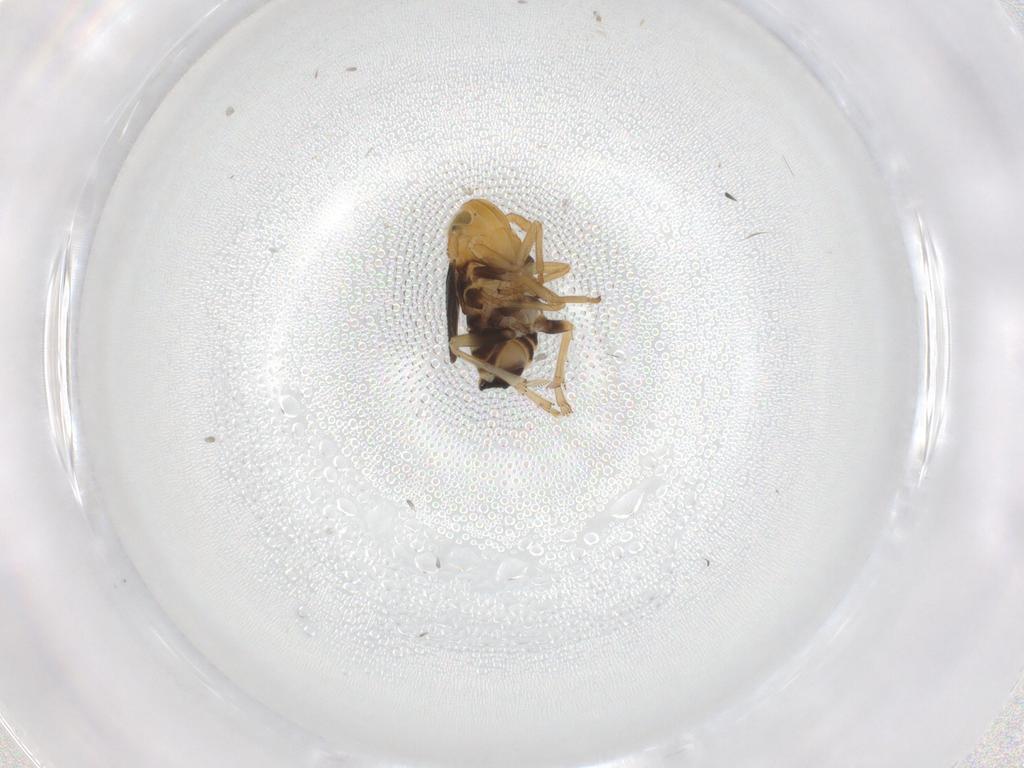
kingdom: Animalia
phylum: Arthropoda
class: Insecta
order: Hemiptera
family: Delphacidae
